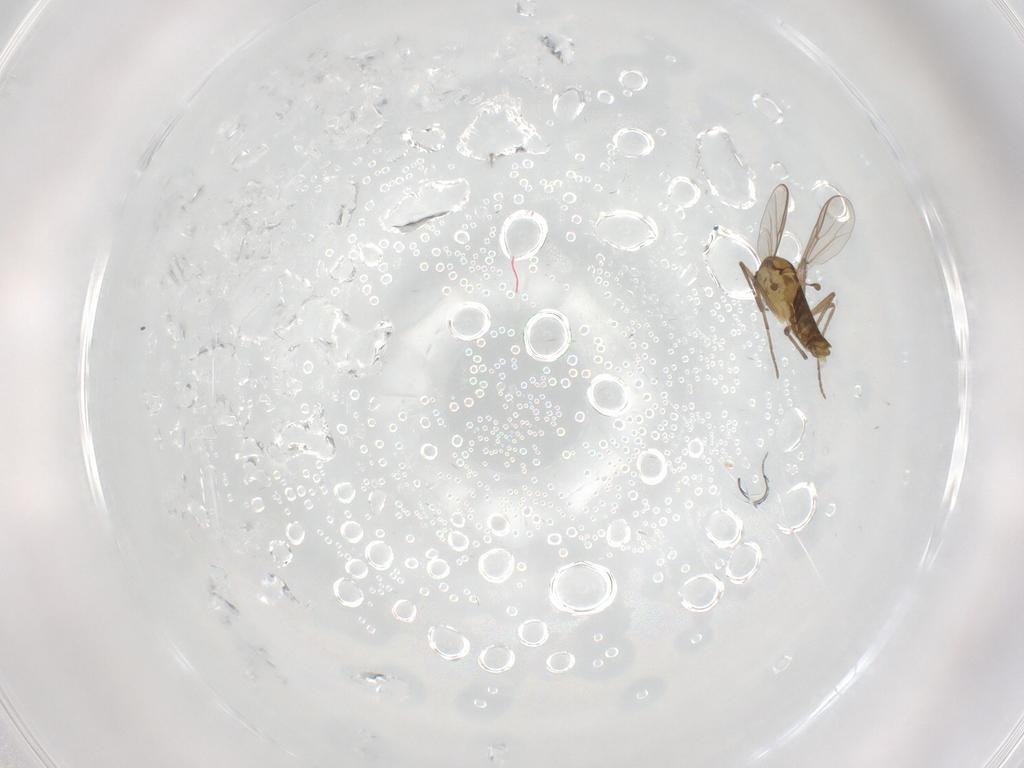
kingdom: Animalia
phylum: Arthropoda
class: Insecta
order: Diptera
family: Chironomidae
